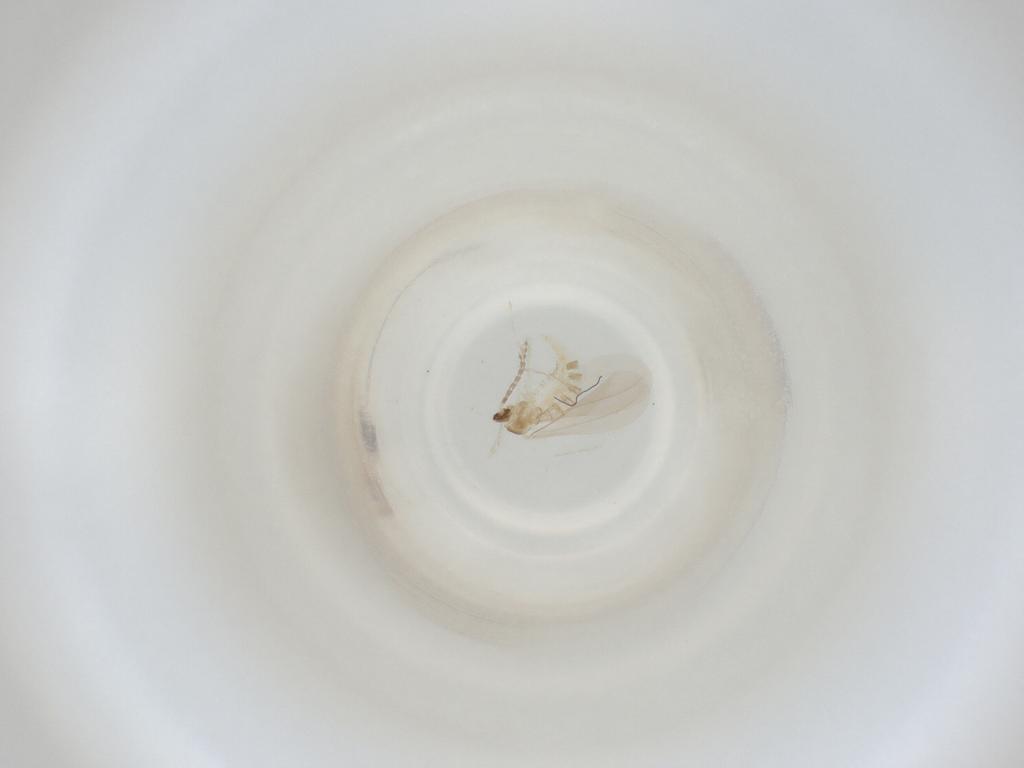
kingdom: Animalia
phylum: Arthropoda
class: Insecta
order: Diptera
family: Cecidomyiidae
